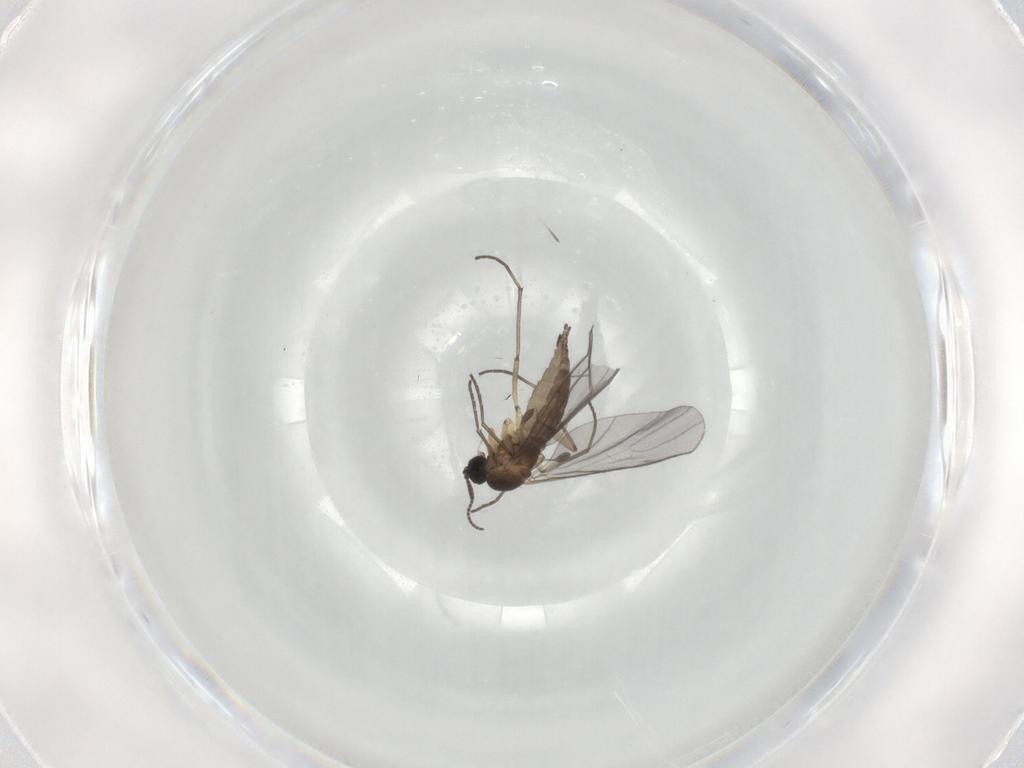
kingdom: Animalia
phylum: Arthropoda
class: Insecta
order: Diptera
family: Sciaridae
